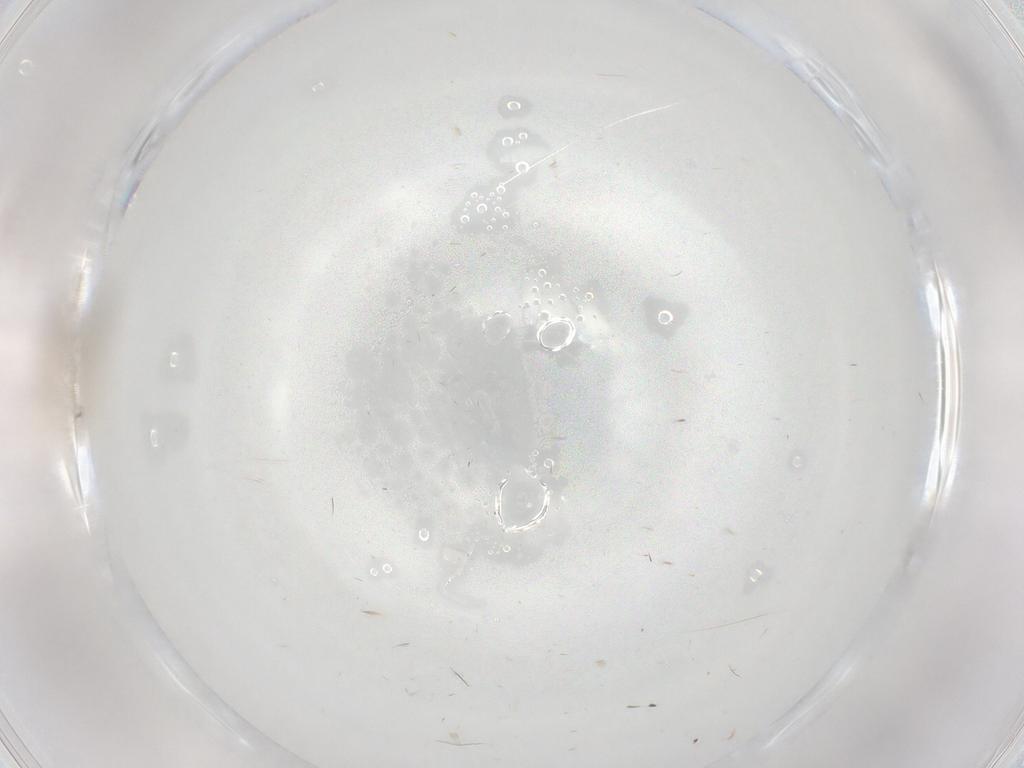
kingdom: Animalia
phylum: Arthropoda
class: Insecta
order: Diptera
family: Cecidomyiidae
